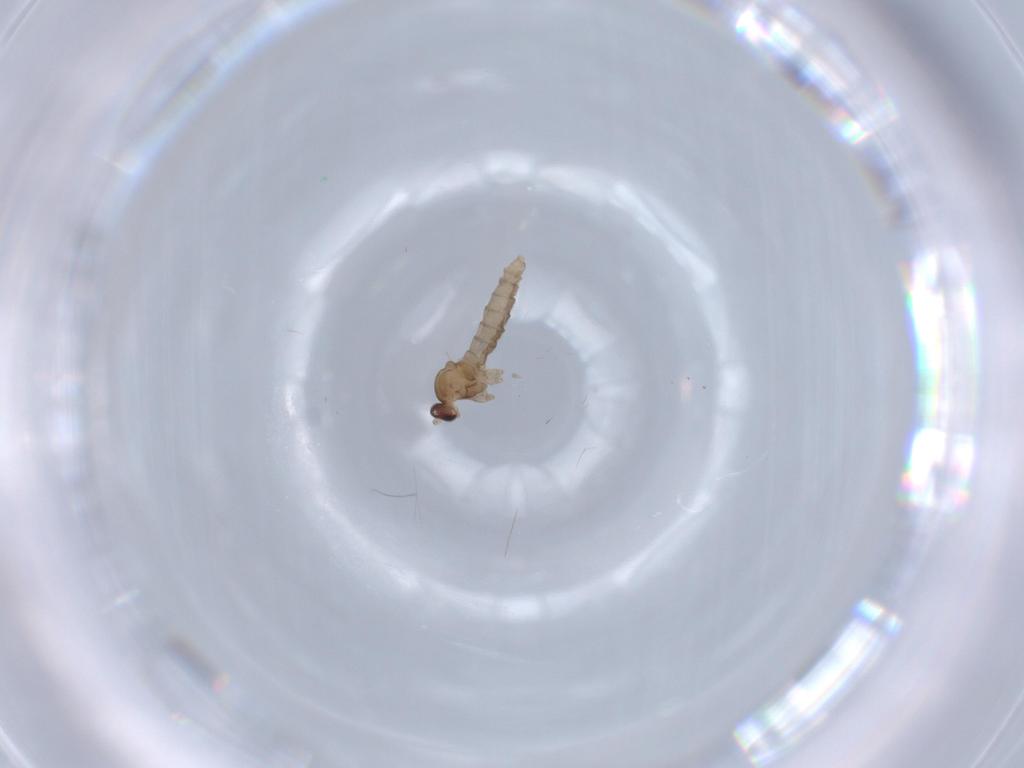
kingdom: Animalia
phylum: Arthropoda
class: Insecta
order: Diptera
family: Cecidomyiidae
